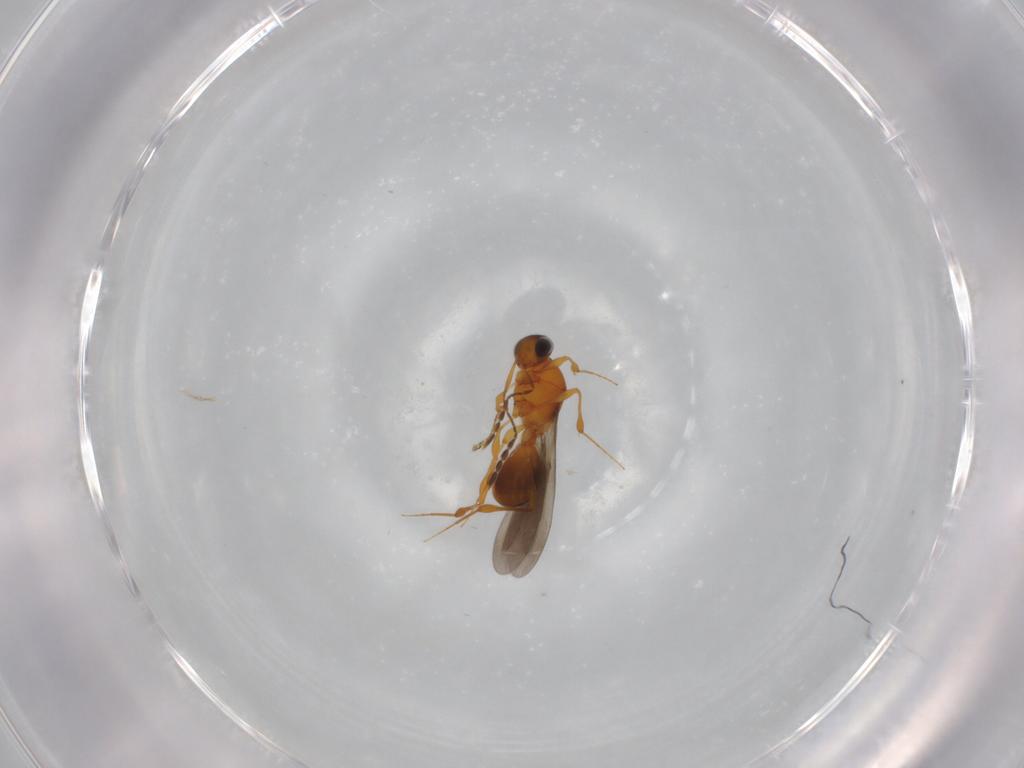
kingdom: Animalia
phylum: Arthropoda
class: Insecta
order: Hymenoptera
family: Platygastridae
